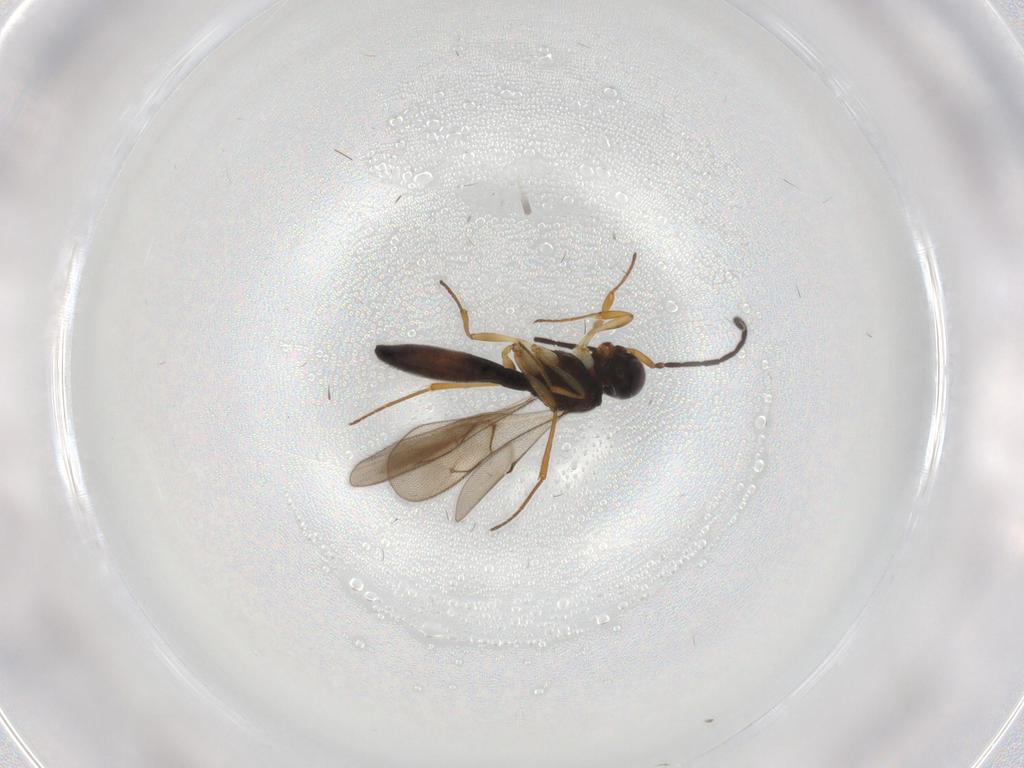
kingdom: Animalia
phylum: Arthropoda
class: Insecta
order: Hymenoptera
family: Scelionidae
